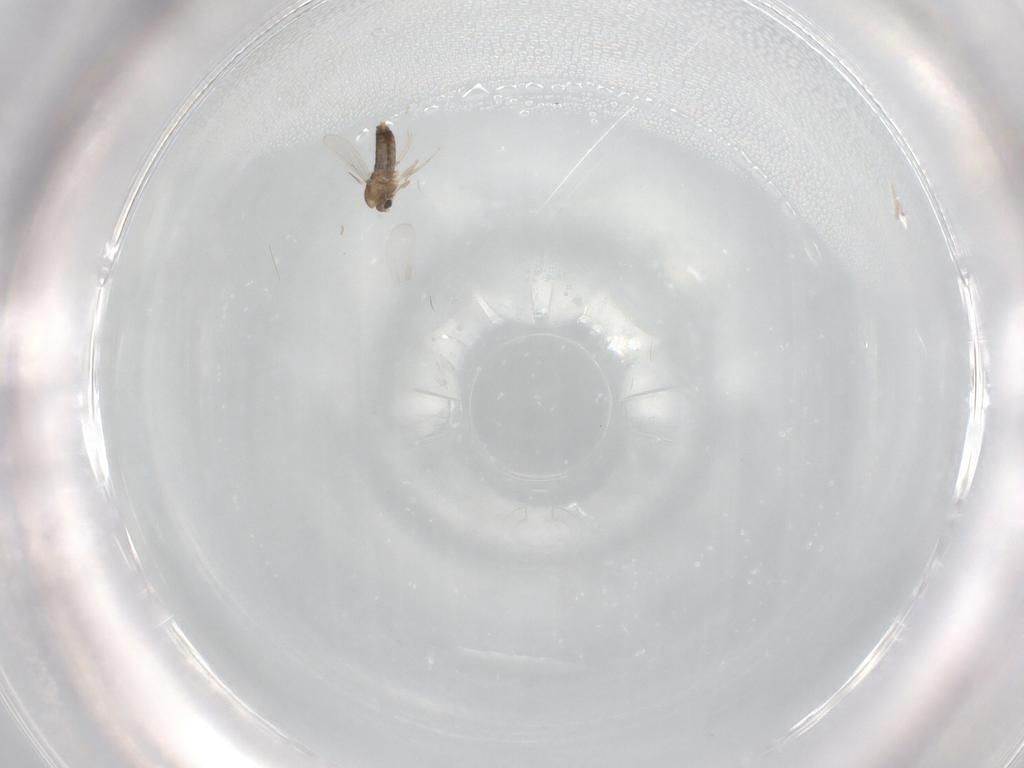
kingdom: Animalia
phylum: Arthropoda
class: Insecta
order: Diptera
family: Chironomidae
